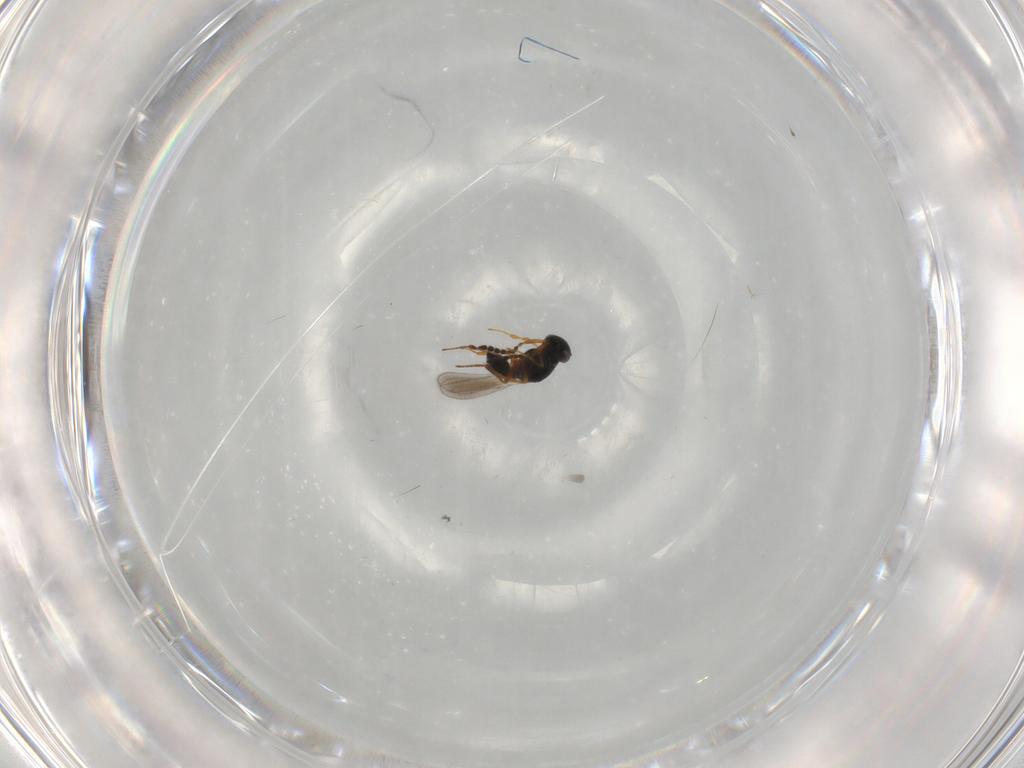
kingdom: Animalia
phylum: Arthropoda
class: Insecta
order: Hymenoptera
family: Platygastridae
